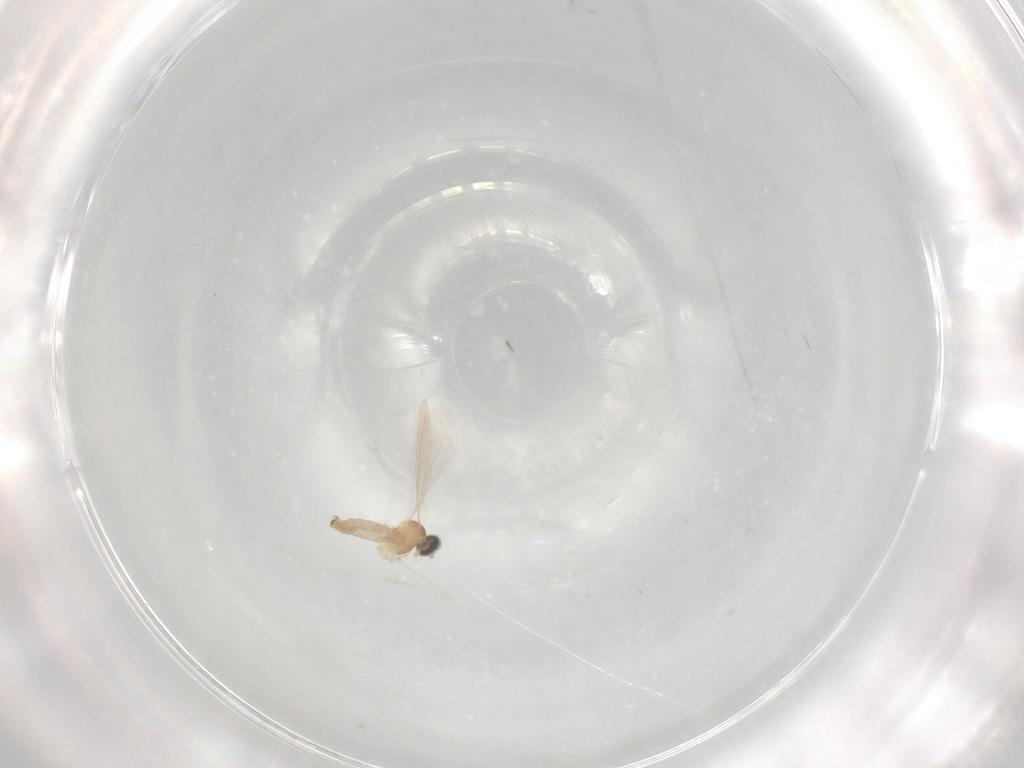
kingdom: Animalia
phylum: Arthropoda
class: Insecta
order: Diptera
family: Cecidomyiidae
